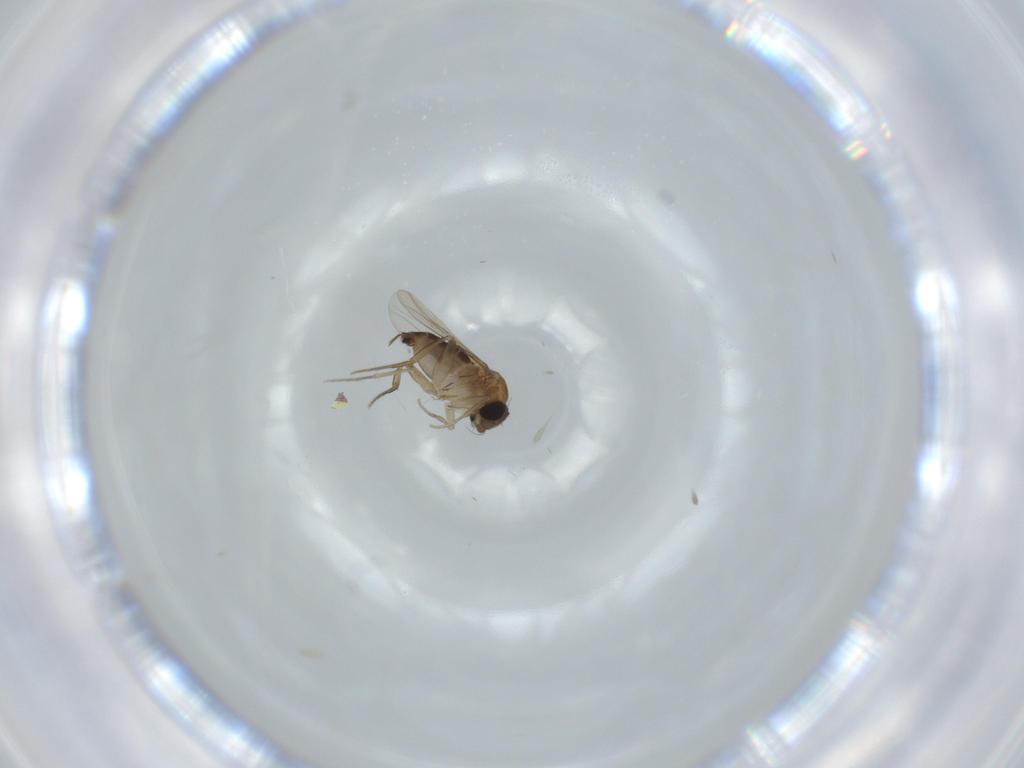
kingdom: Animalia
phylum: Arthropoda
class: Insecta
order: Diptera
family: Phoridae
